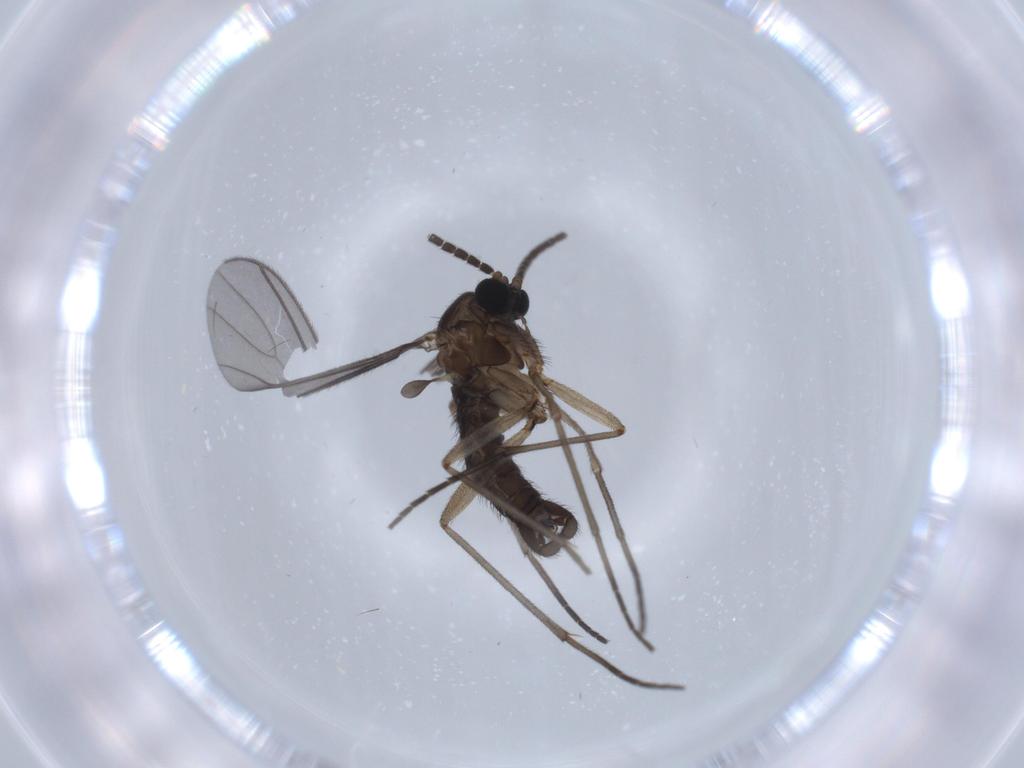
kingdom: Animalia
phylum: Arthropoda
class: Insecta
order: Diptera
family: Sciaridae
